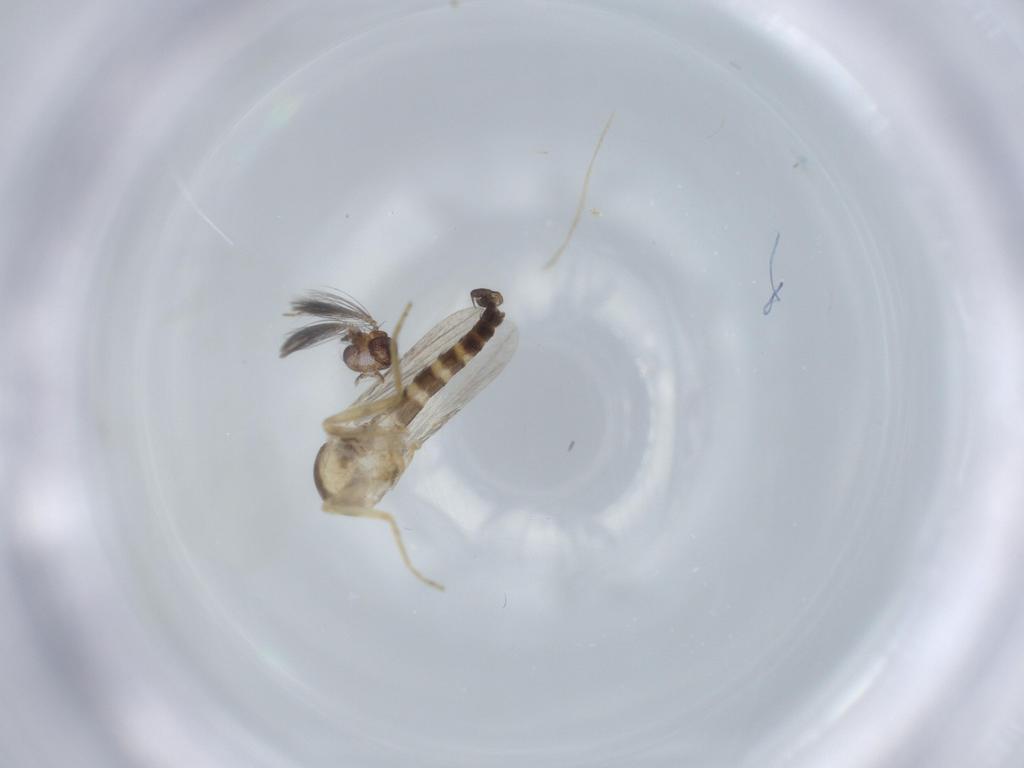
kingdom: Animalia
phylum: Arthropoda
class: Insecta
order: Diptera
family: Ceratopogonidae
